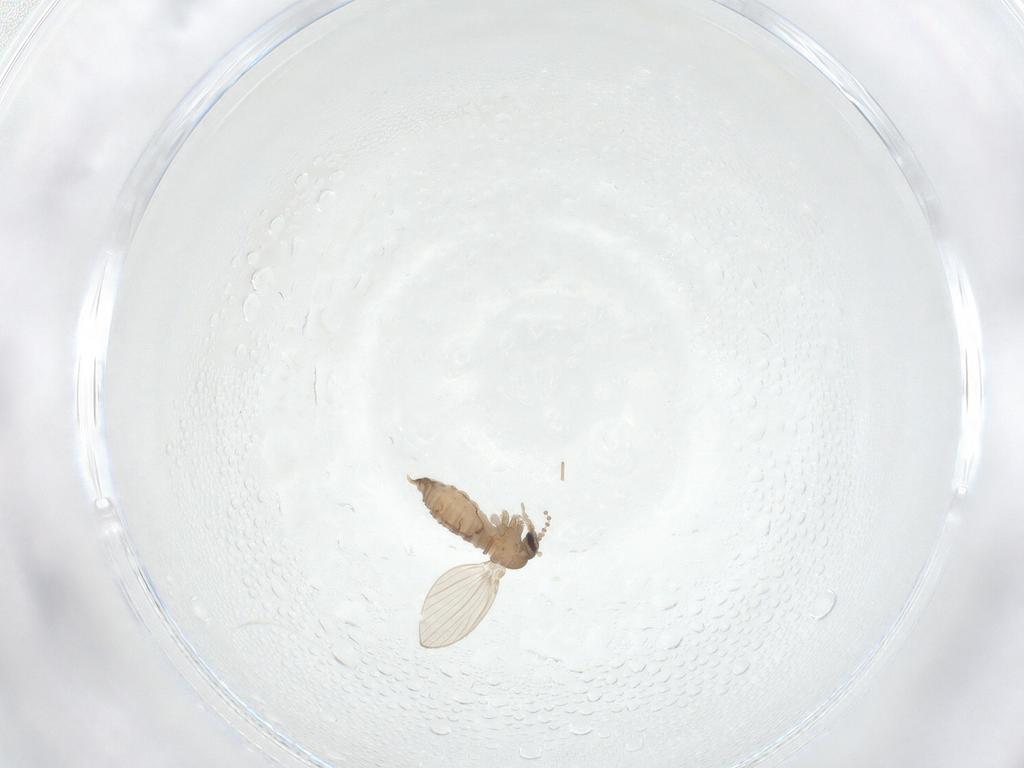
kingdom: Animalia
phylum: Arthropoda
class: Insecta
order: Diptera
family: Psychodidae
